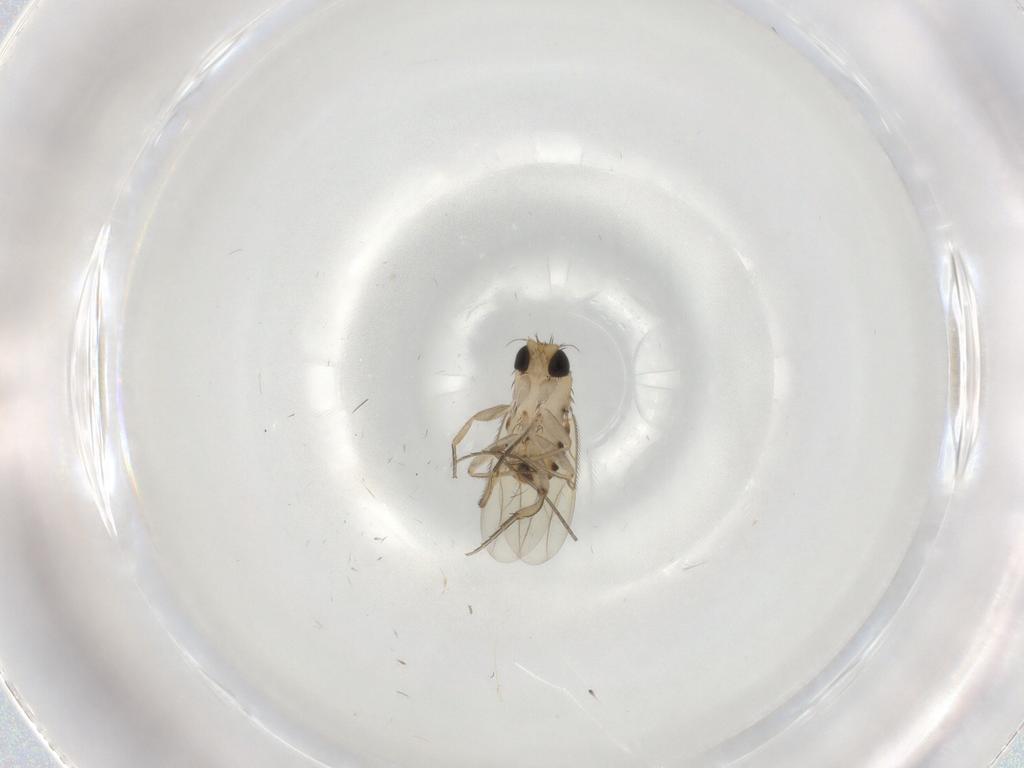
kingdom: Animalia
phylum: Arthropoda
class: Insecta
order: Diptera
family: Phoridae
